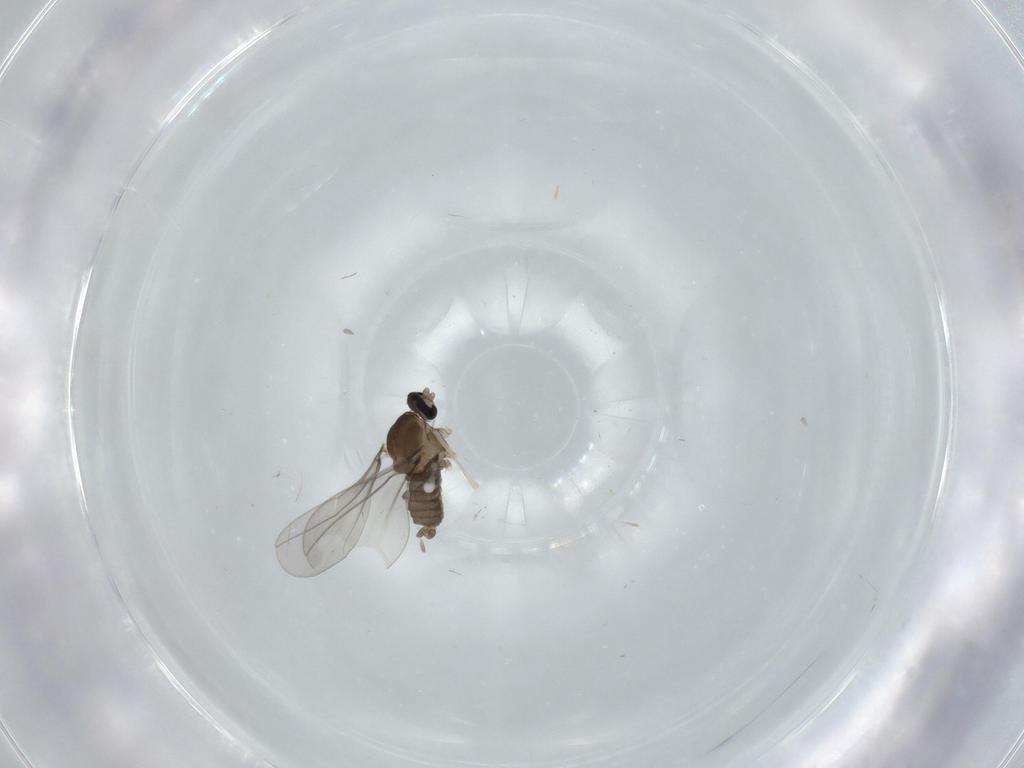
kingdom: Animalia
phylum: Arthropoda
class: Insecta
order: Diptera
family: Cecidomyiidae
